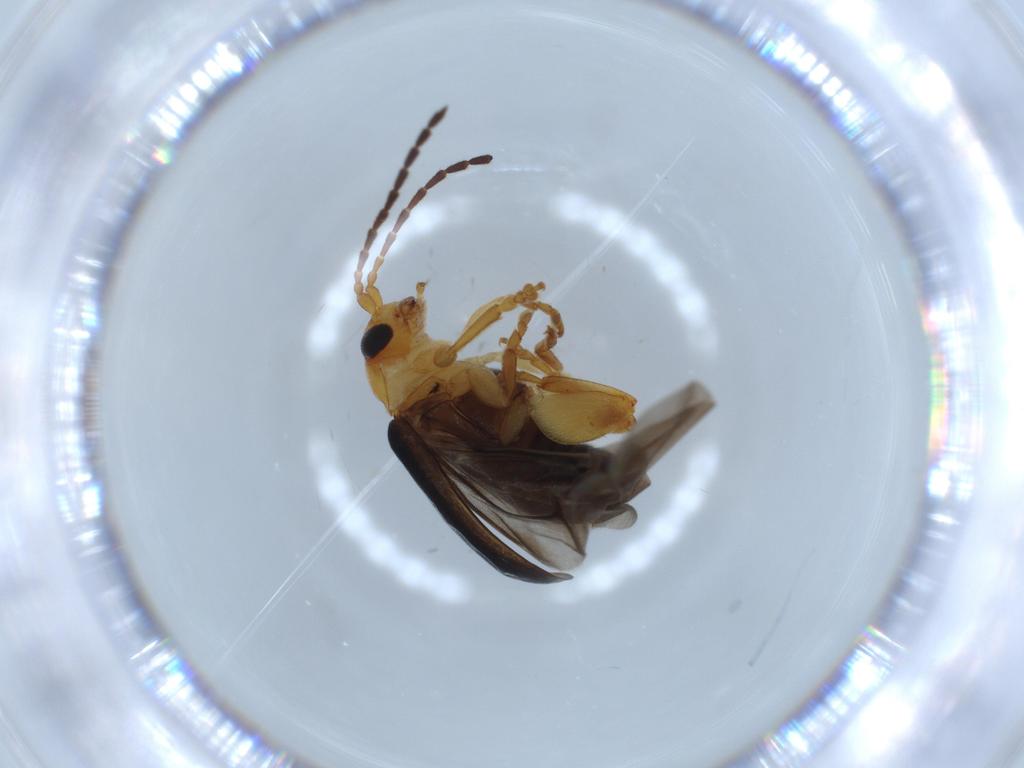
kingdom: Animalia
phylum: Arthropoda
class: Insecta
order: Coleoptera
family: Chrysomelidae
